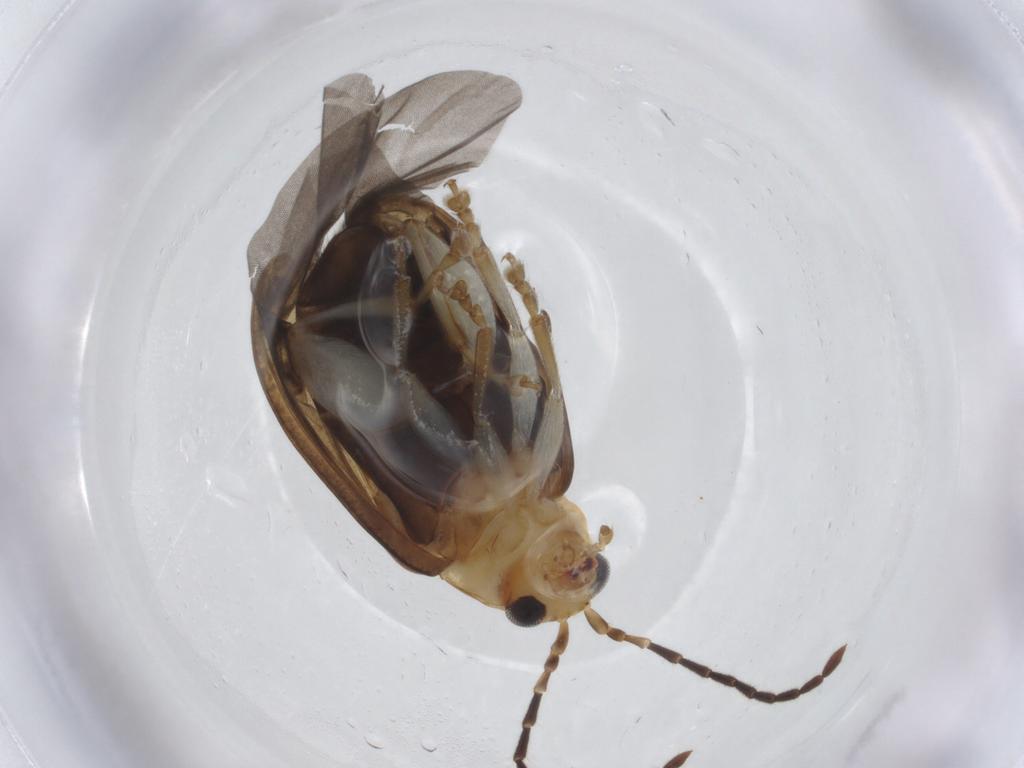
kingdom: Animalia
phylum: Arthropoda
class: Insecta
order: Coleoptera
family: Chrysomelidae
